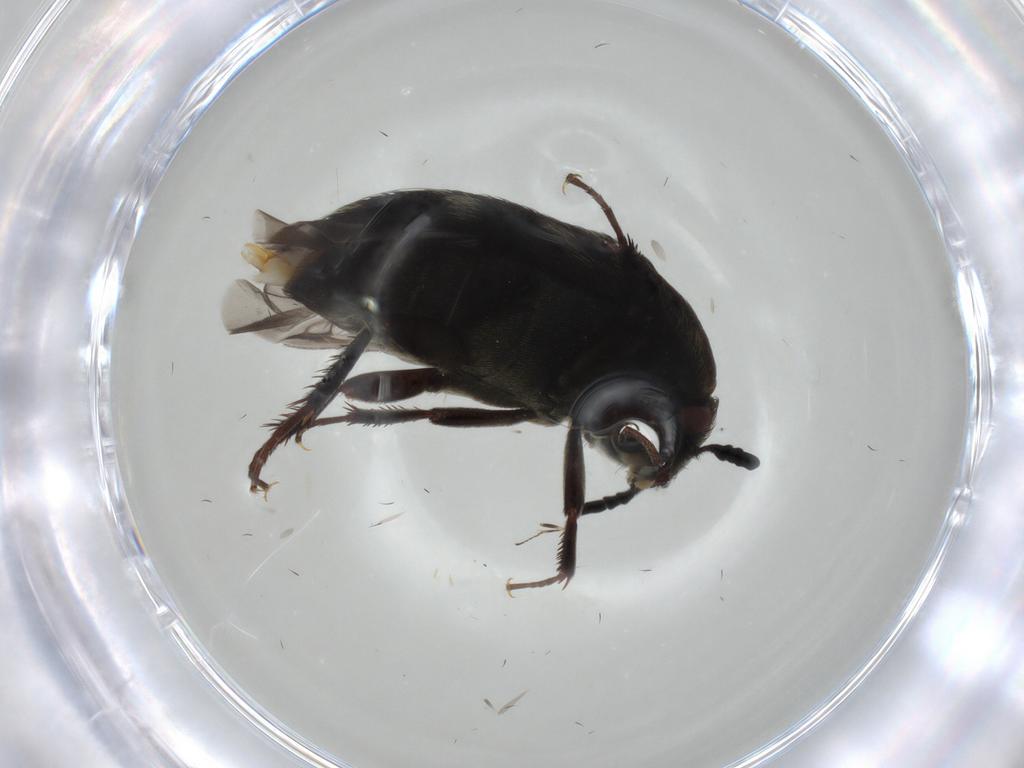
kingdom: Animalia
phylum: Arthropoda
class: Insecta
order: Coleoptera
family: Dermestidae
